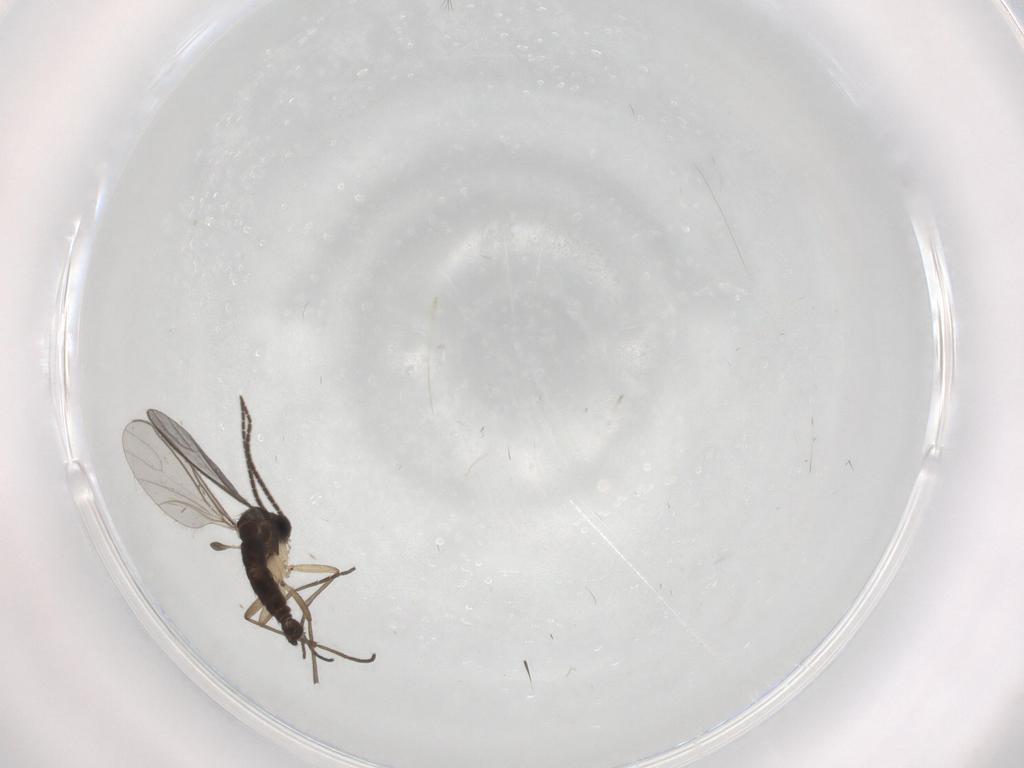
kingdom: Animalia
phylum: Arthropoda
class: Insecta
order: Diptera
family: Sciaridae
